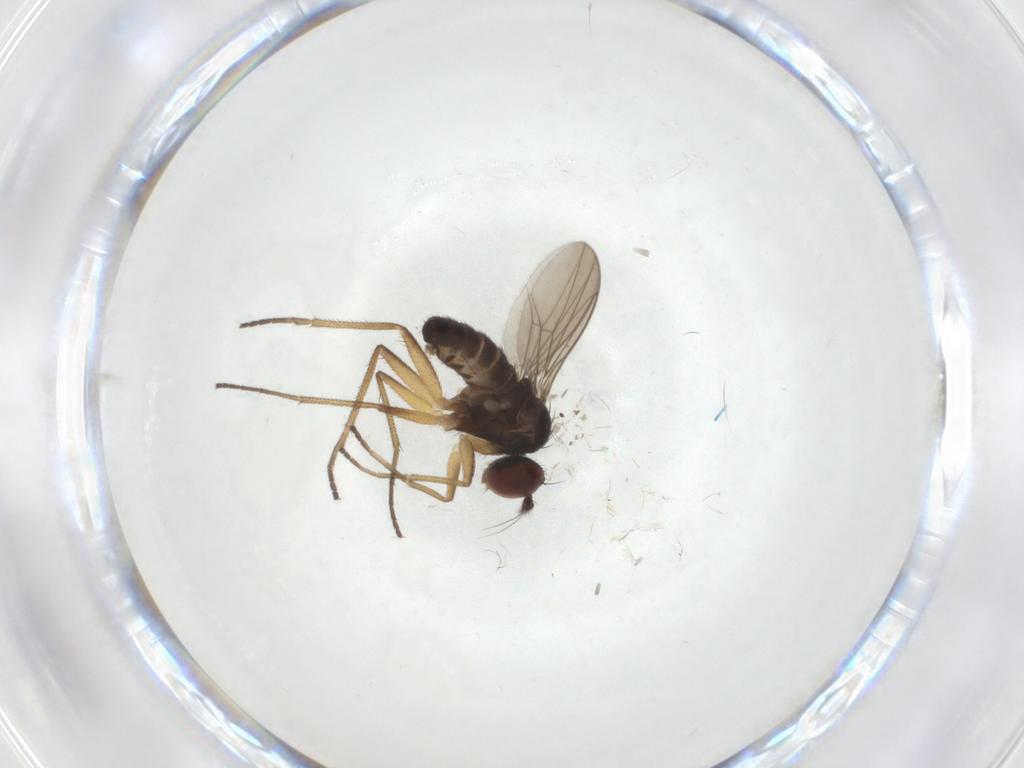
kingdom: Animalia
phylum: Arthropoda
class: Insecta
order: Diptera
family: Dolichopodidae
